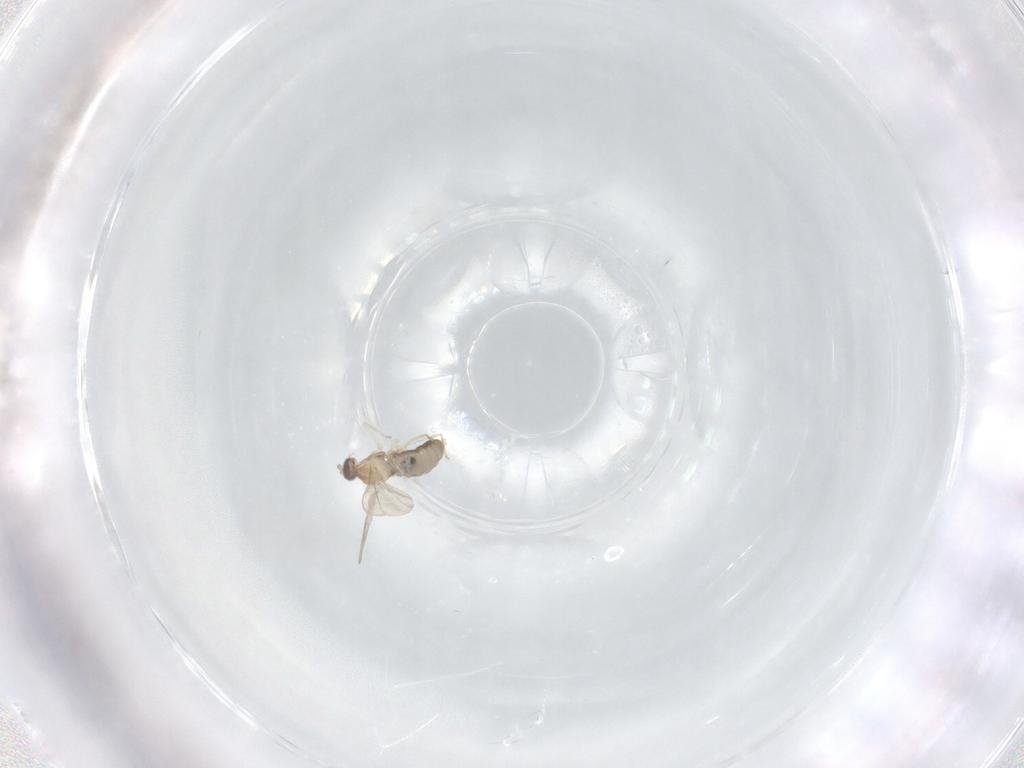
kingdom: Animalia
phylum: Arthropoda
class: Insecta
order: Diptera
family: Cecidomyiidae
